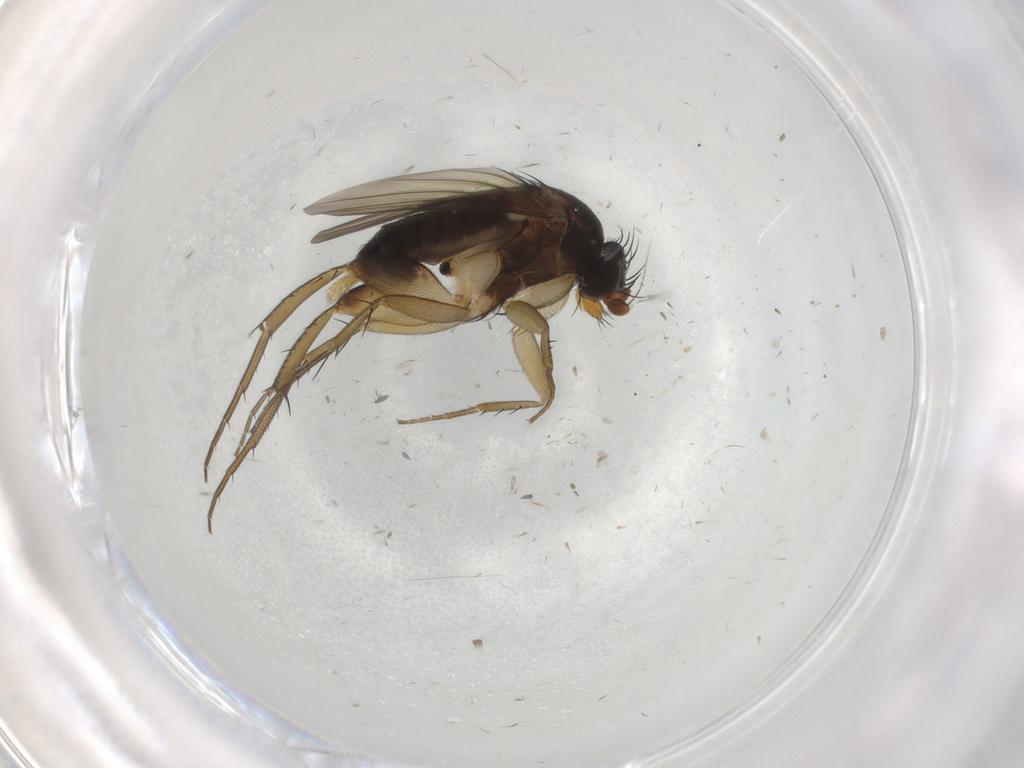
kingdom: Animalia
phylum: Arthropoda
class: Insecta
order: Diptera
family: Phoridae
